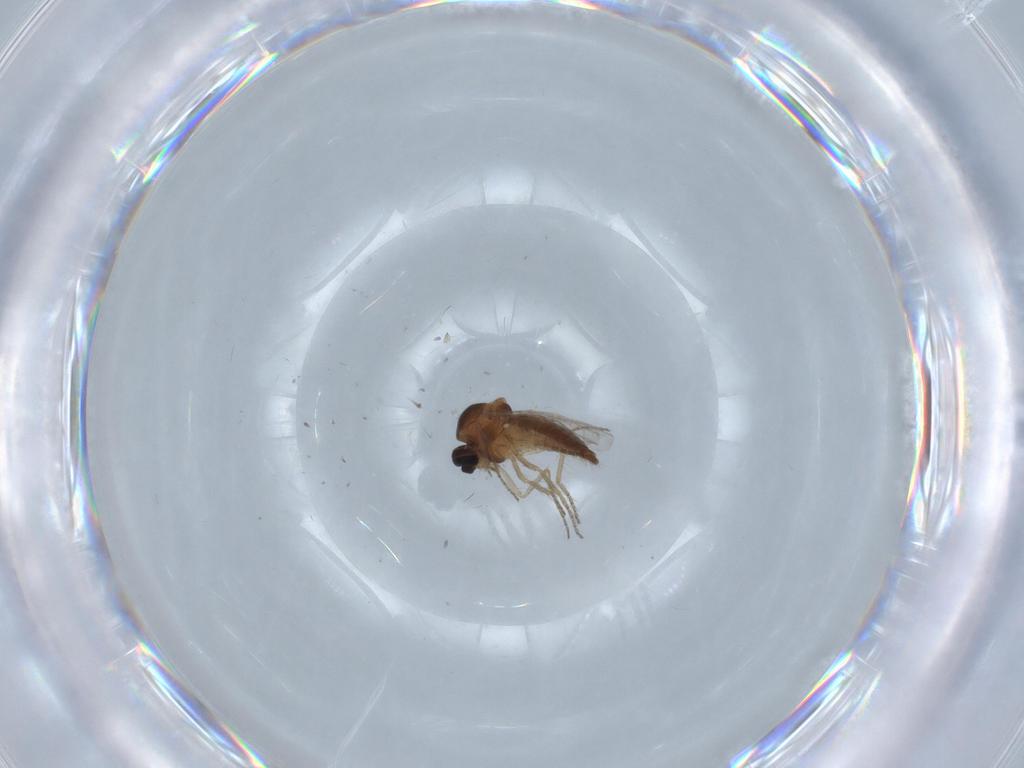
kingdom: Animalia
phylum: Arthropoda
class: Insecta
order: Diptera
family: Ceratopogonidae
